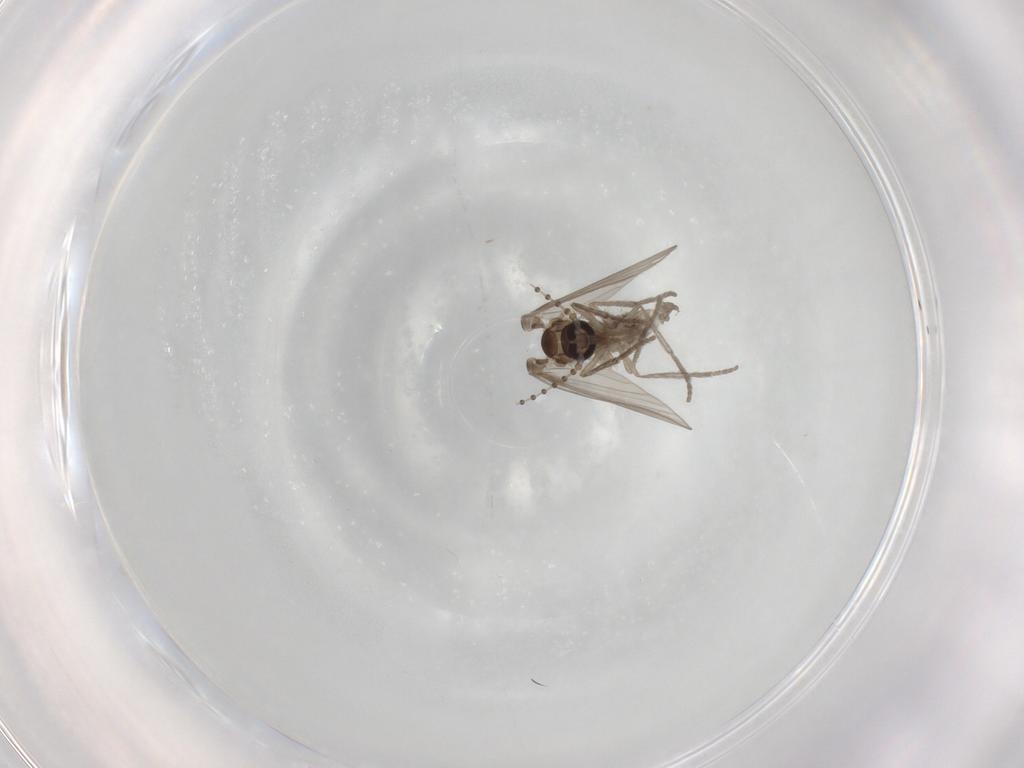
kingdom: Animalia
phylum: Arthropoda
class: Insecta
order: Diptera
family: Psychodidae
